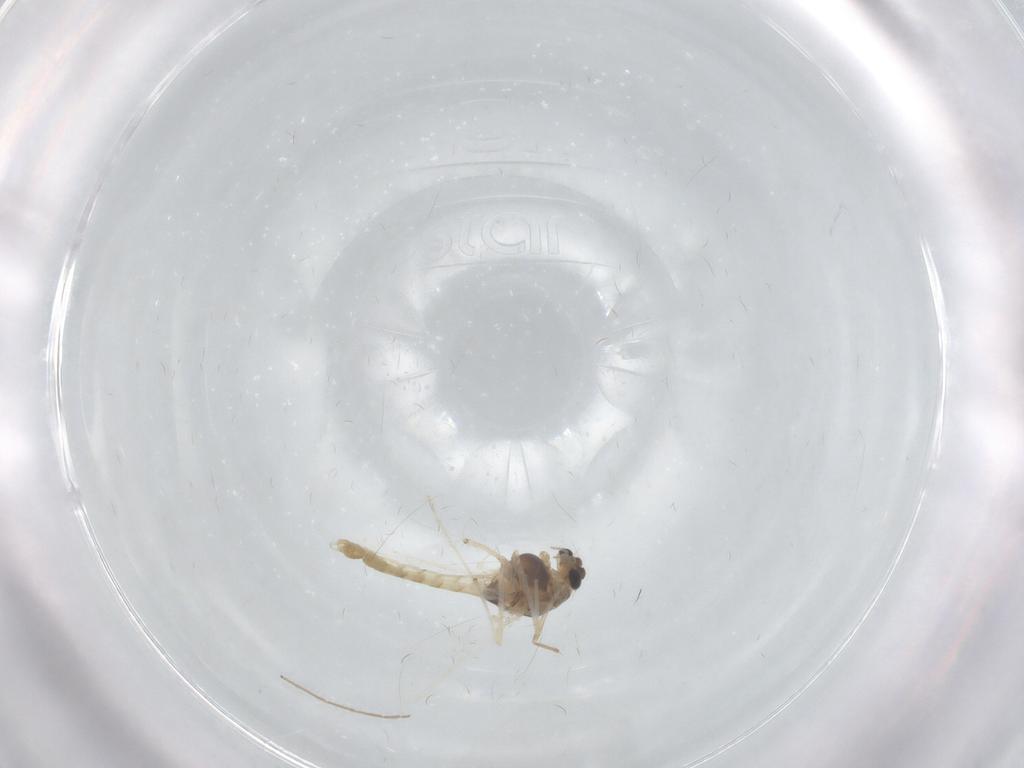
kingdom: Animalia
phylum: Arthropoda
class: Insecta
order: Diptera
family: Chironomidae
